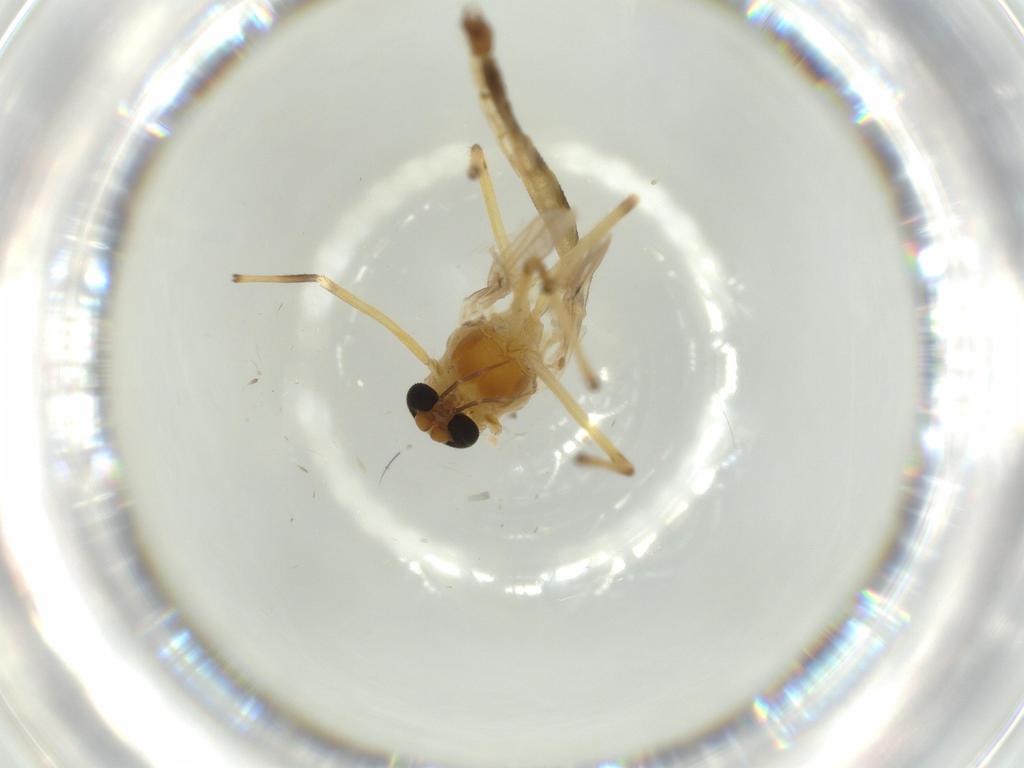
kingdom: Animalia
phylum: Arthropoda
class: Insecta
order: Diptera
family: Chironomidae
